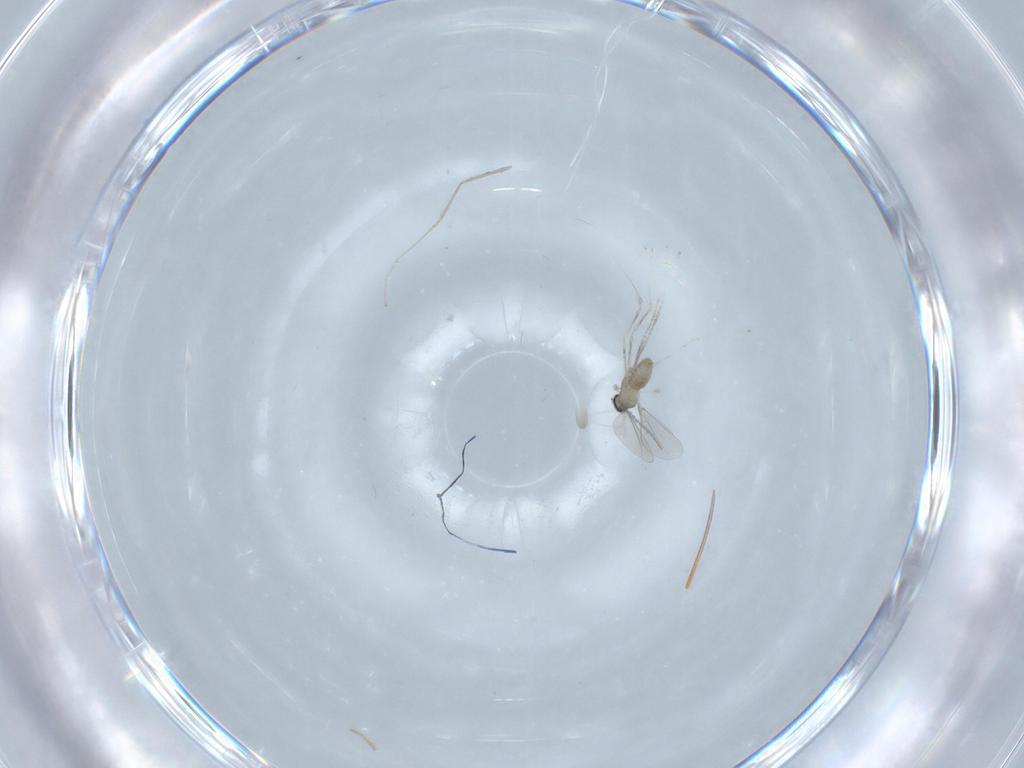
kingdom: Animalia
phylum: Arthropoda
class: Insecta
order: Diptera
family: Cecidomyiidae
